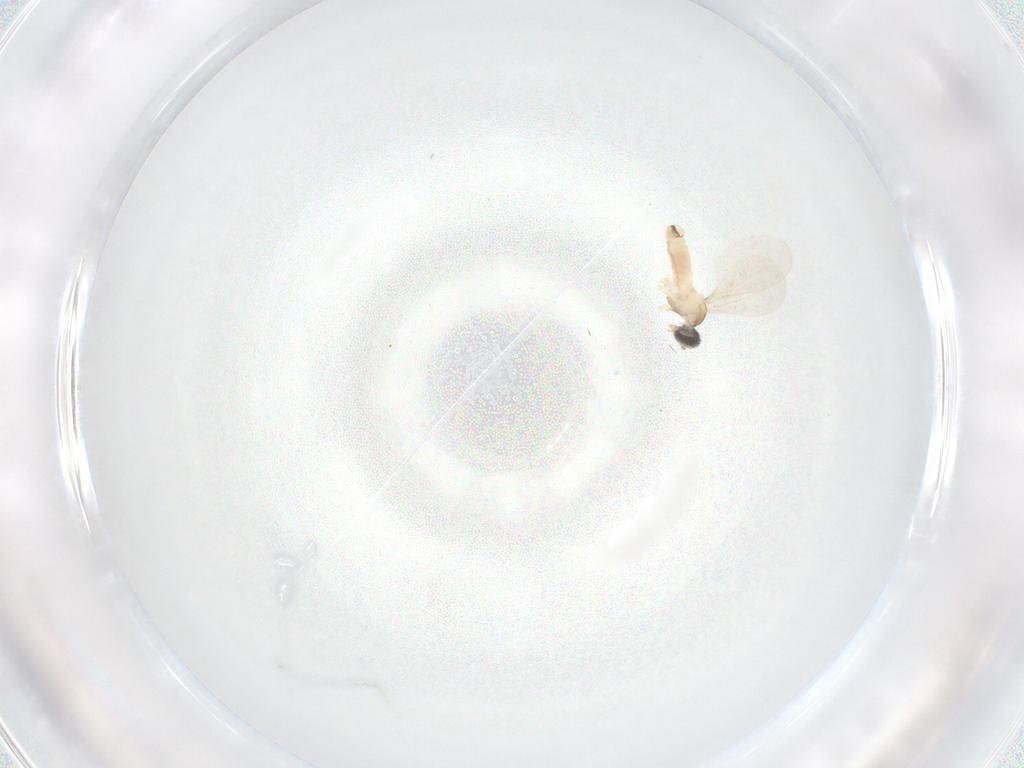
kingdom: Animalia
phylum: Arthropoda
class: Insecta
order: Diptera
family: Cecidomyiidae
